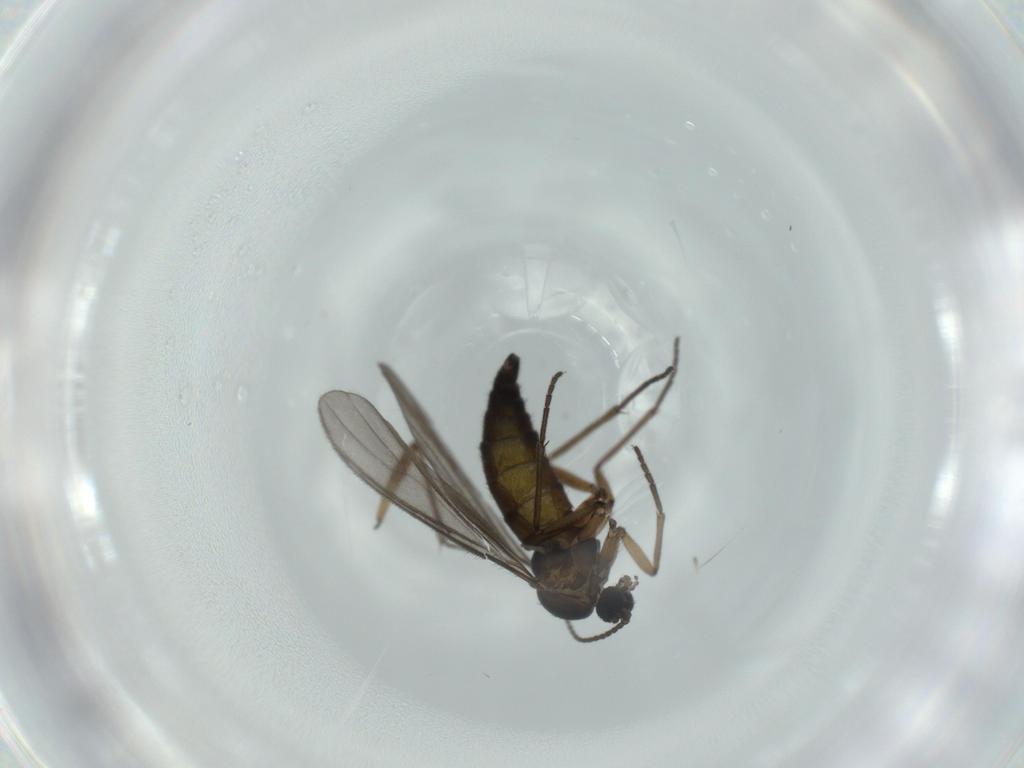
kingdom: Animalia
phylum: Arthropoda
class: Insecta
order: Diptera
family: Sciaridae
